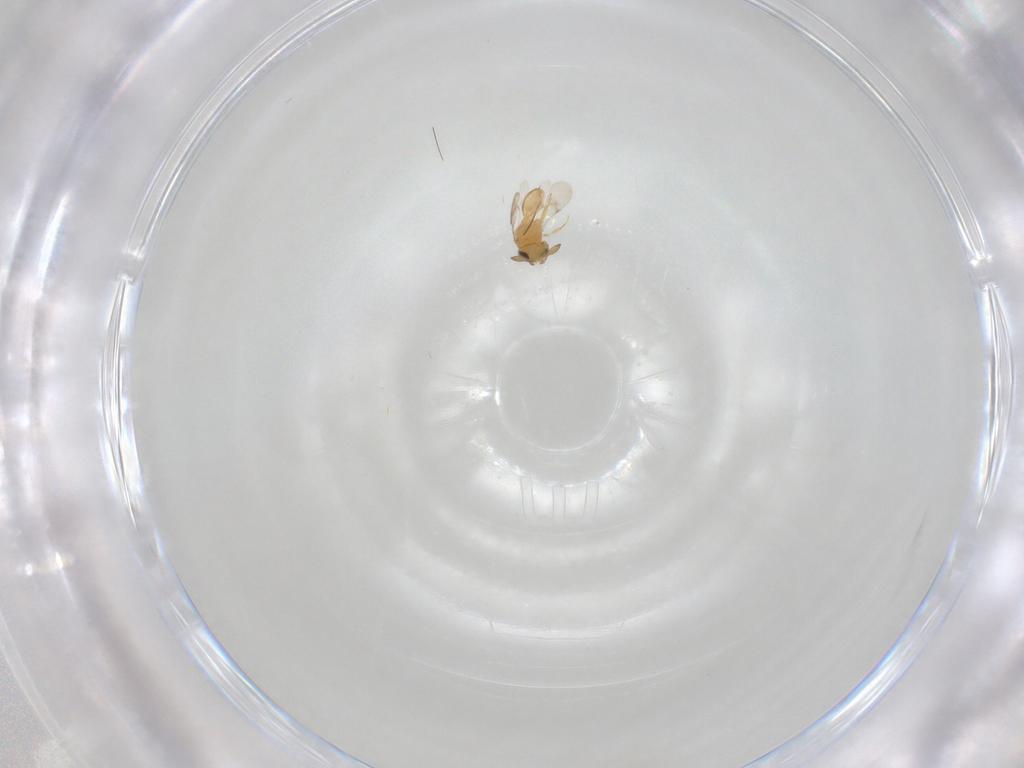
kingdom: Animalia
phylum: Arthropoda
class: Insecta
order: Hymenoptera
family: Scelionidae
